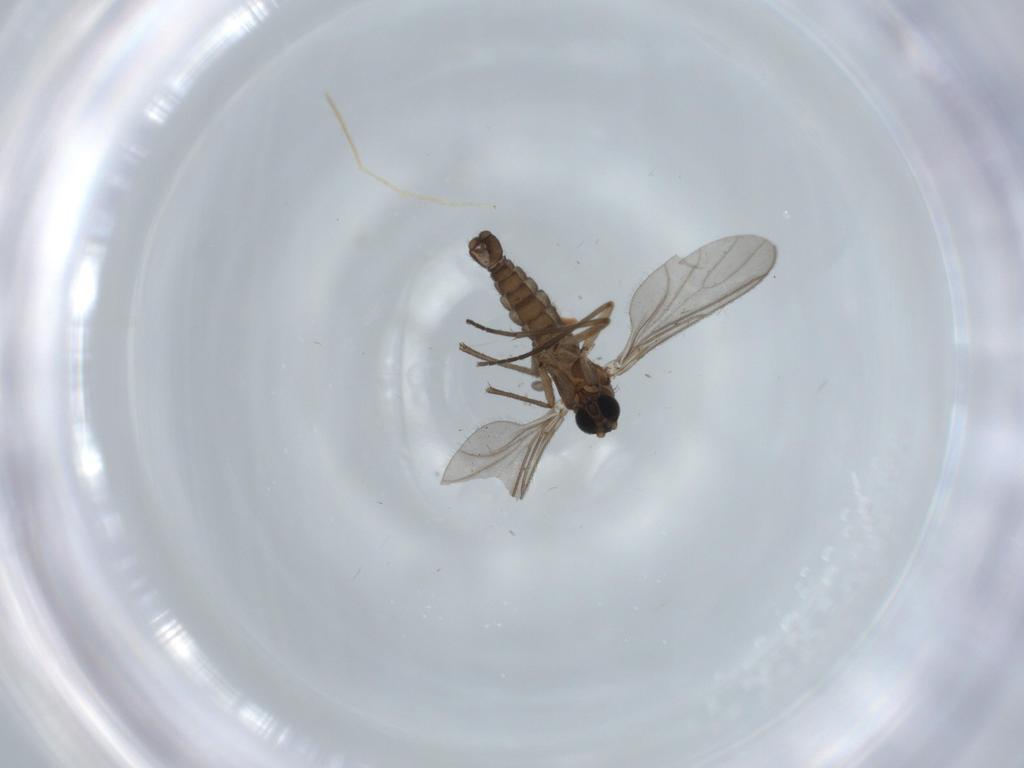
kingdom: Animalia
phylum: Arthropoda
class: Insecta
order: Diptera
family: Sciaridae
